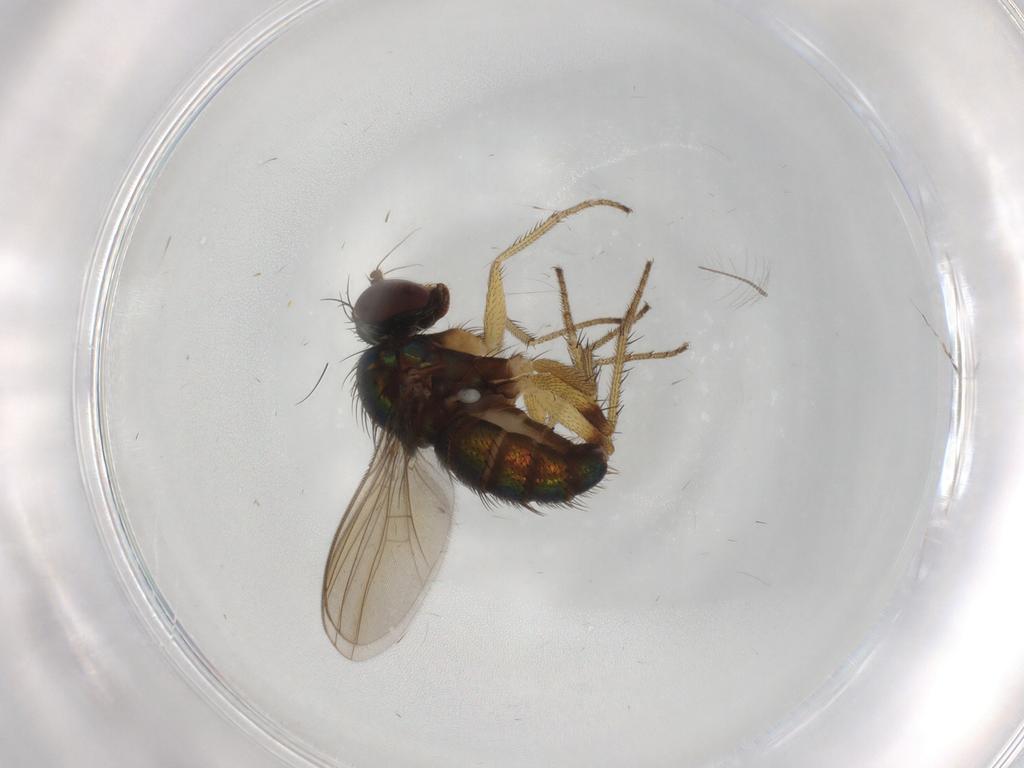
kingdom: Animalia
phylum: Arthropoda
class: Insecta
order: Diptera
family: Chironomidae
